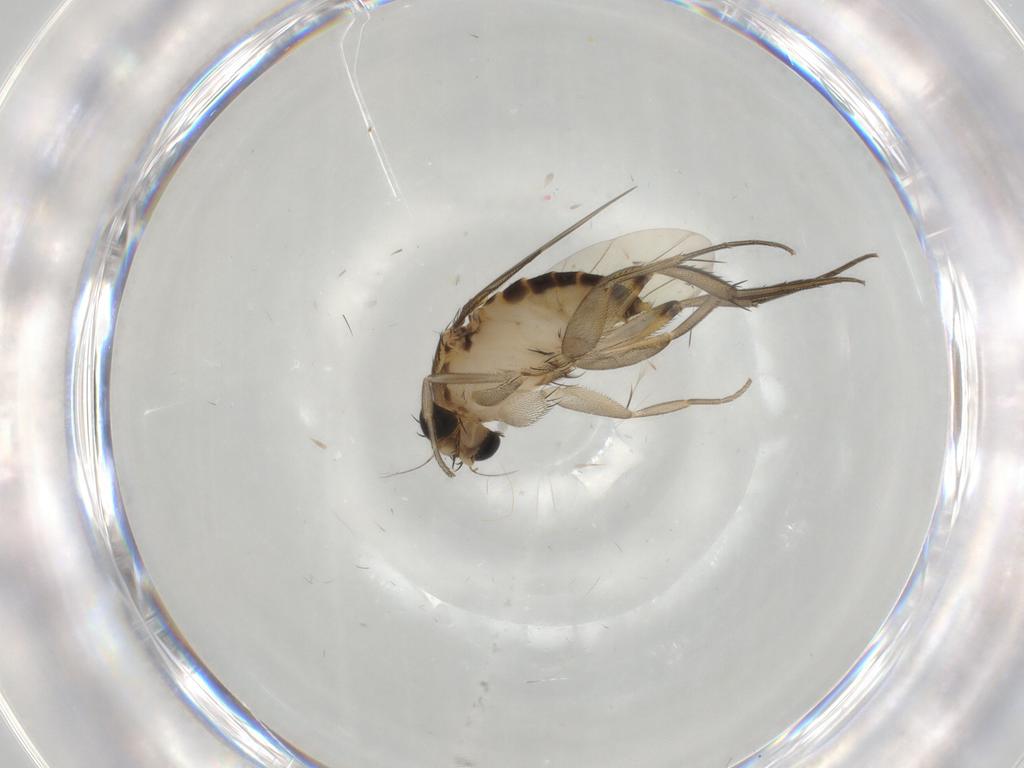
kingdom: Animalia
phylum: Arthropoda
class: Insecta
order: Diptera
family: Phoridae
